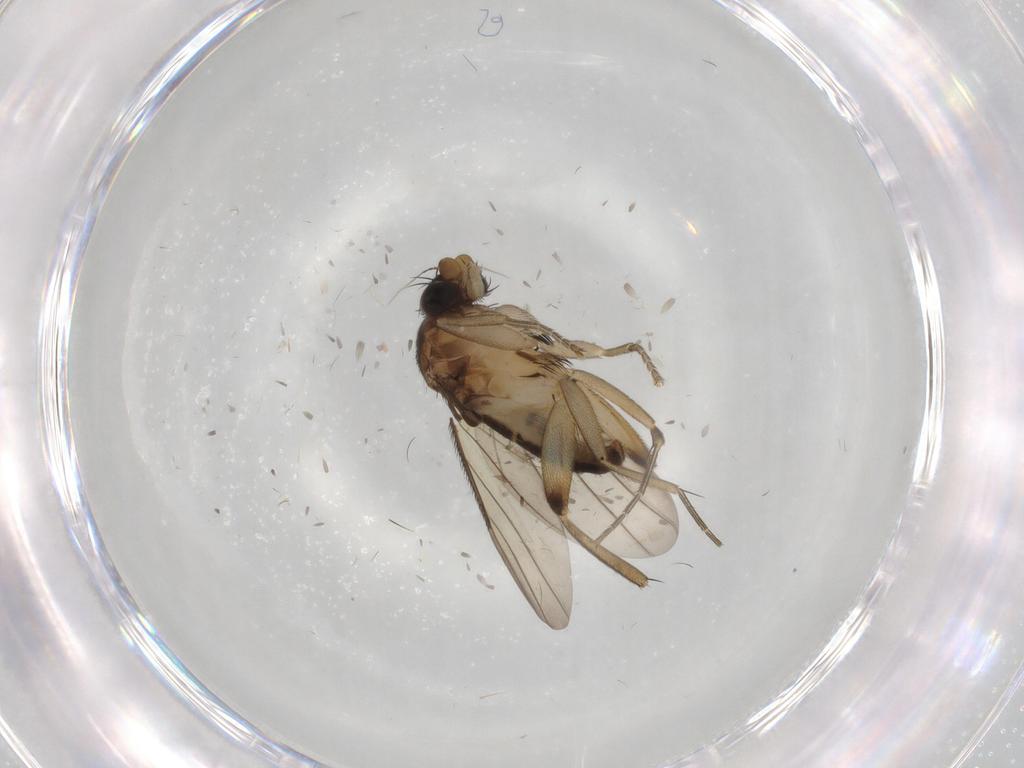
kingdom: Animalia
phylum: Arthropoda
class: Insecta
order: Diptera
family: Phoridae
